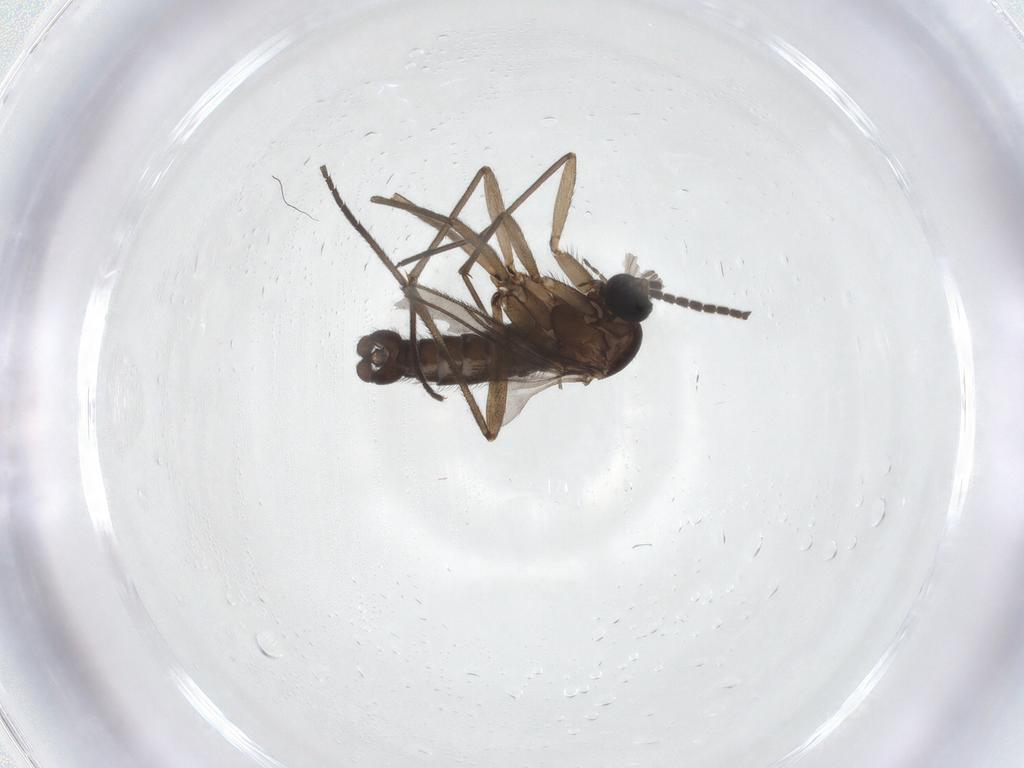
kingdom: Animalia
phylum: Arthropoda
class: Insecta
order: Diptera
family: Sciaridae
